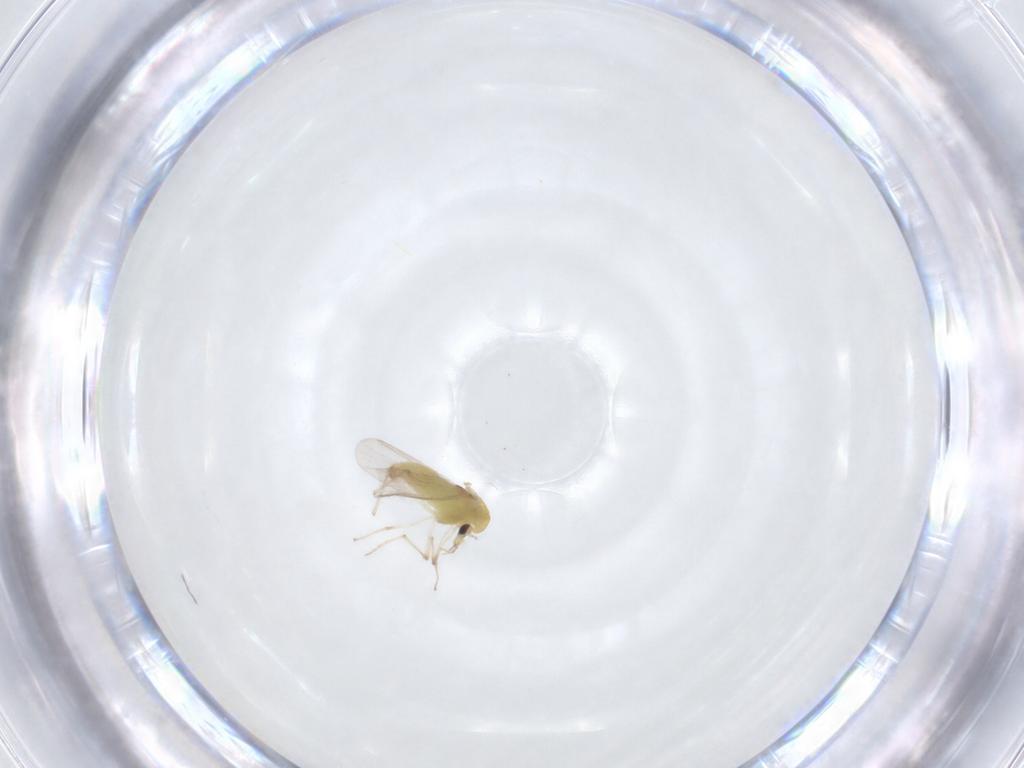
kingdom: Animalia
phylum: Arthropoda
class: Insecta
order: Diptera
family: Chironomidae
